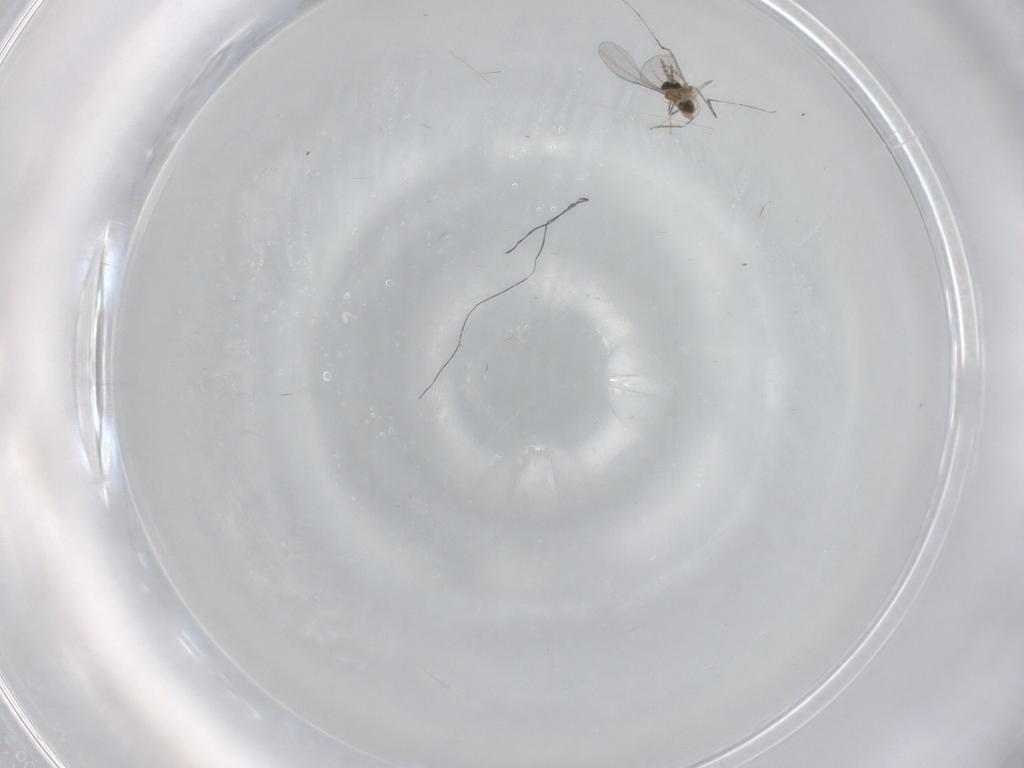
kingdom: Animalia
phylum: Arthropoda
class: Insecta
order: Diptera
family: Cecidomyiidae
